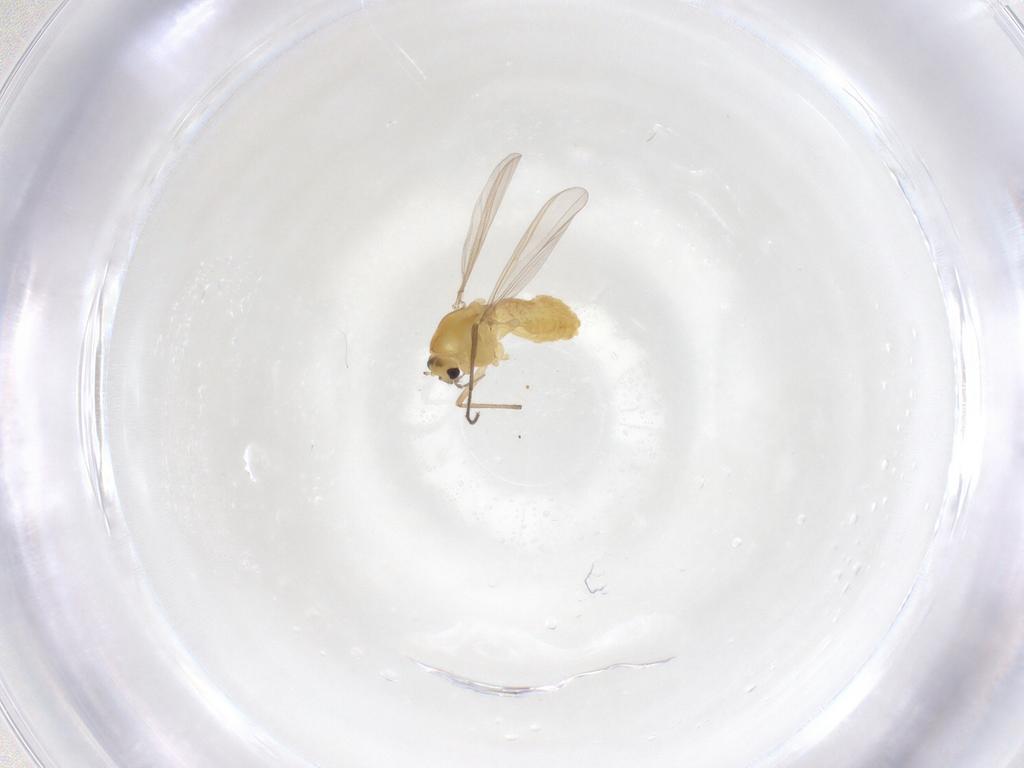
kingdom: Animalia
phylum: Arthropoda
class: Insecta
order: Diptera
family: Chironomidae
